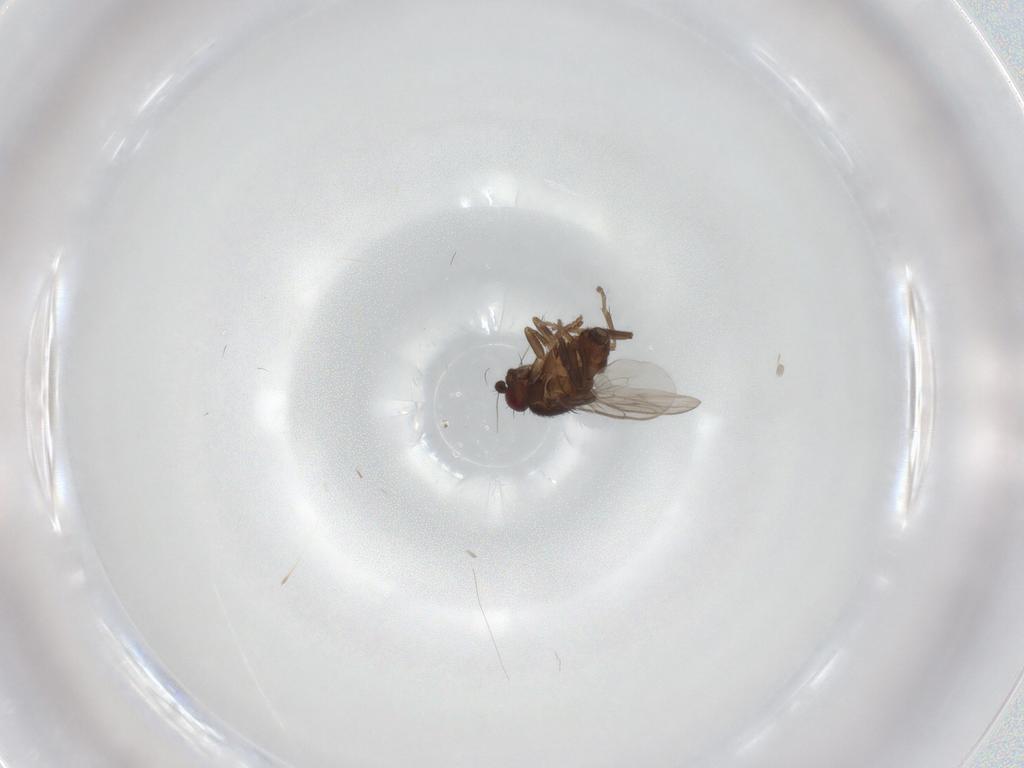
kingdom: Animalia
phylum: Arthropoda
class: Insecta
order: Diptera
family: Sphaeroceridae
